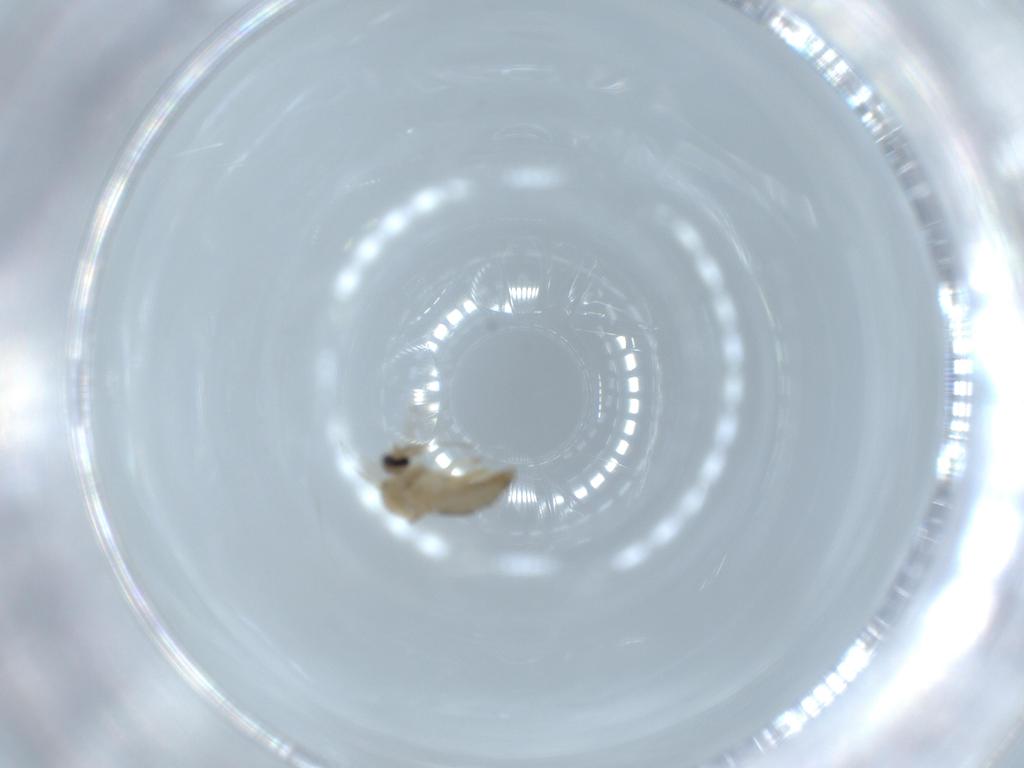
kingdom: Animalia
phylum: Arthropoda
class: Insecta
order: Diptera
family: Ceratopogonidae
